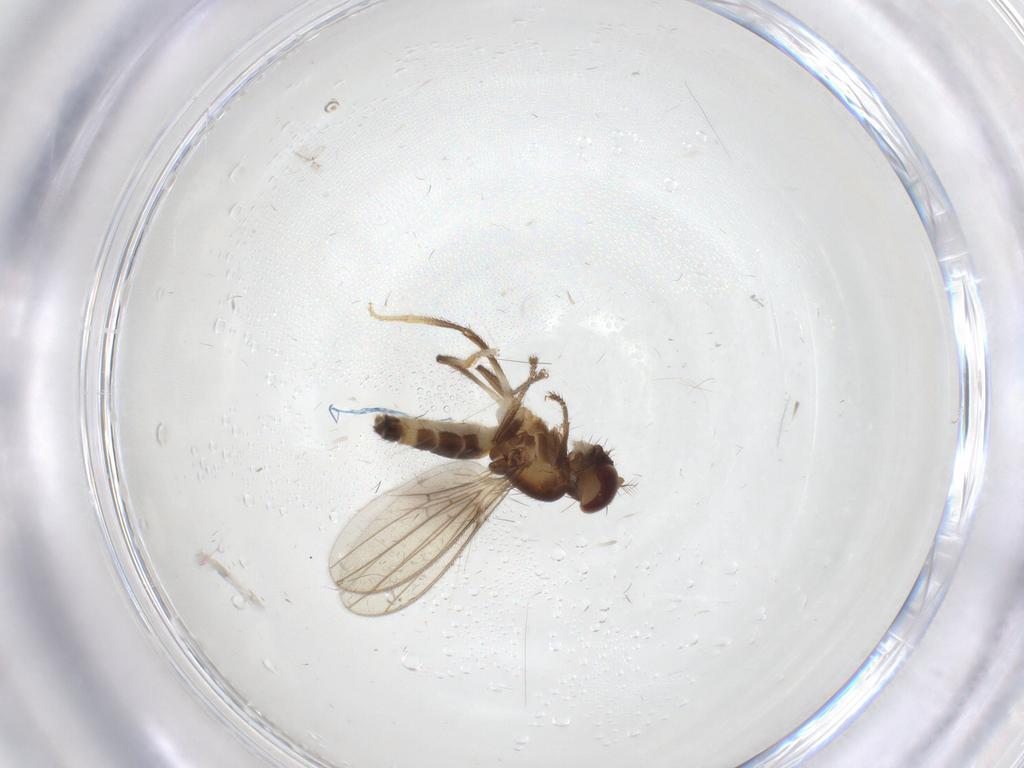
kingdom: Animalia
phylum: Arthropoda
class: Insecta
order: Diptera
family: Periscelididae
